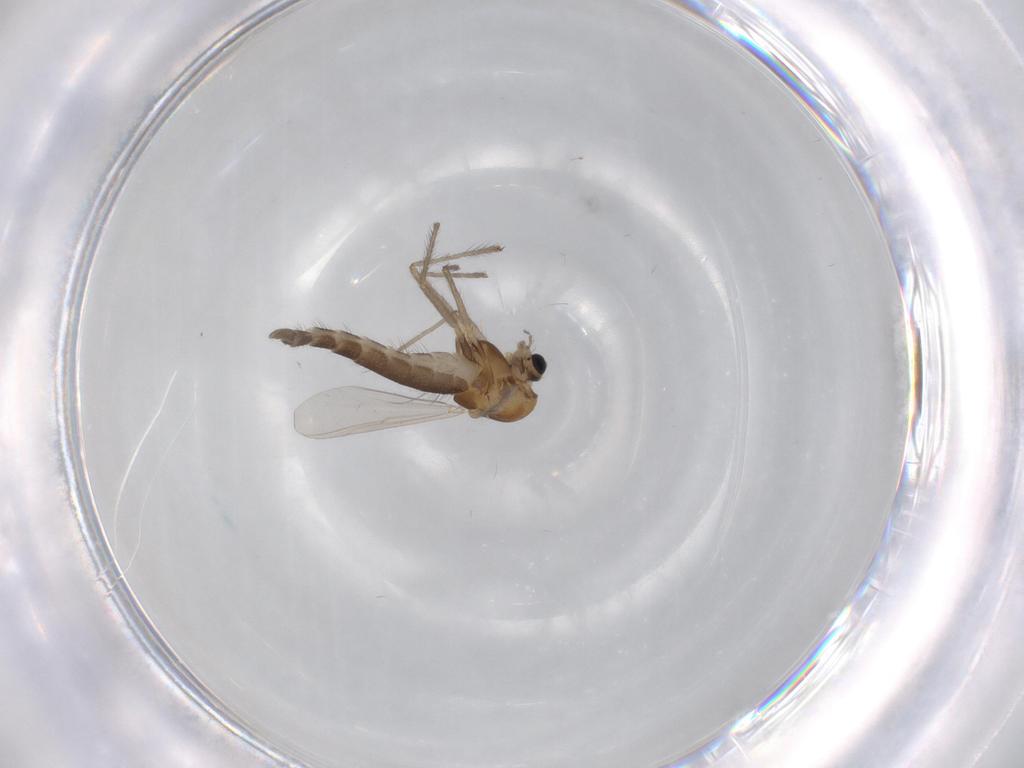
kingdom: Animalia
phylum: Arthropoda
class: Insecta
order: Diptera
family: Chironomidae
